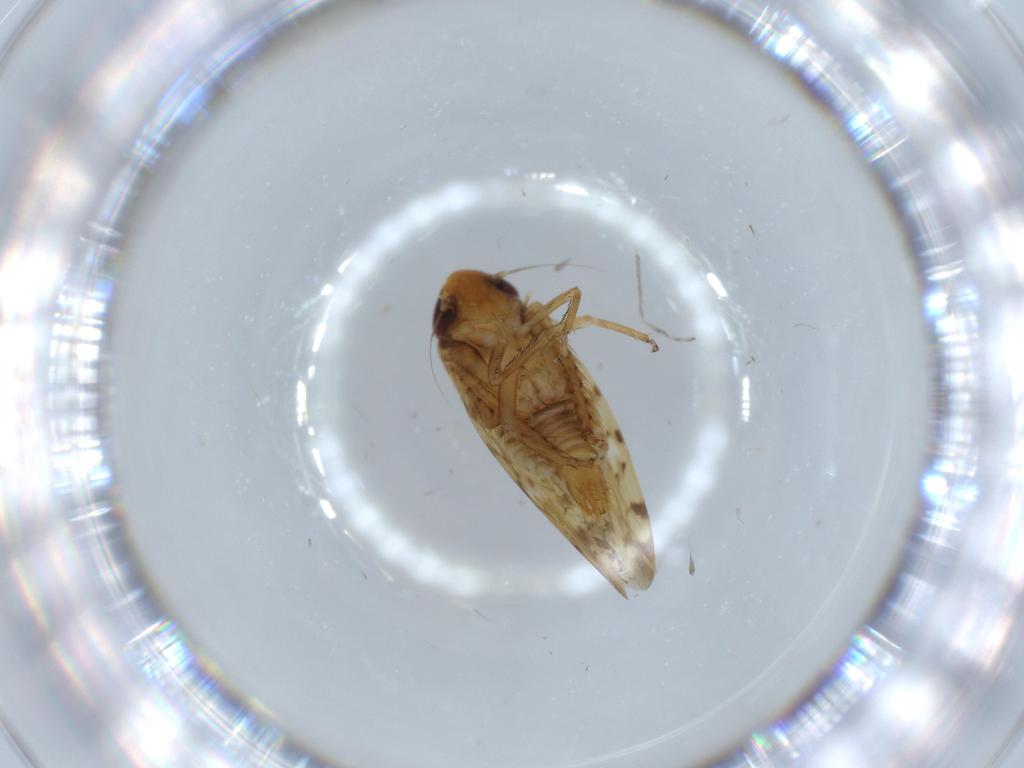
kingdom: Animalia
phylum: Arthropoda
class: Insecta
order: Hemiptera
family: Cicadellidae
